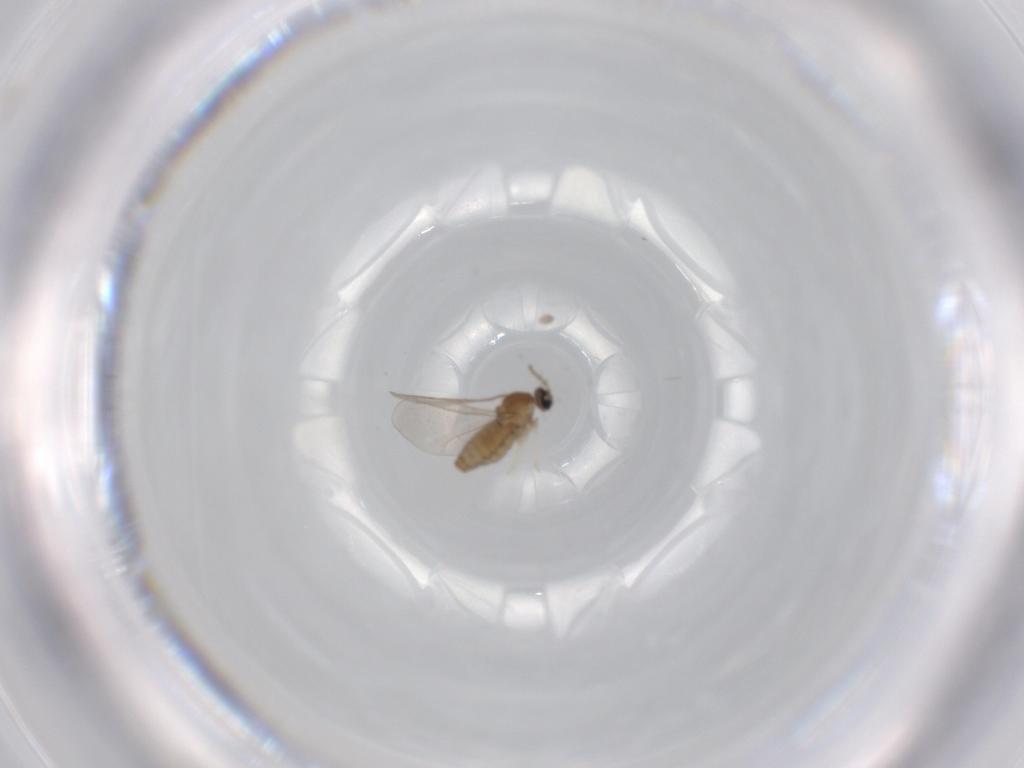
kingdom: Animalia
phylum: Arthropoda
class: Insecta
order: Diptera
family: Cecidomyiidae
